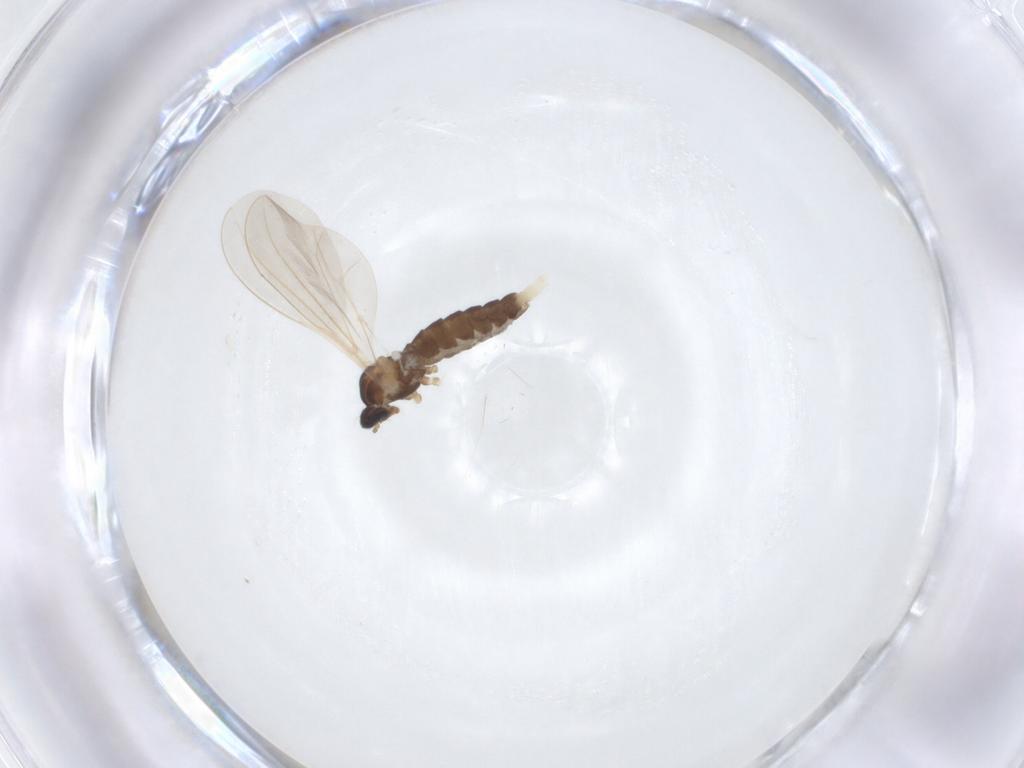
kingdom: Animalia
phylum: Arthropoda
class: Insecta
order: Diptera
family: Cecidomyiidae
